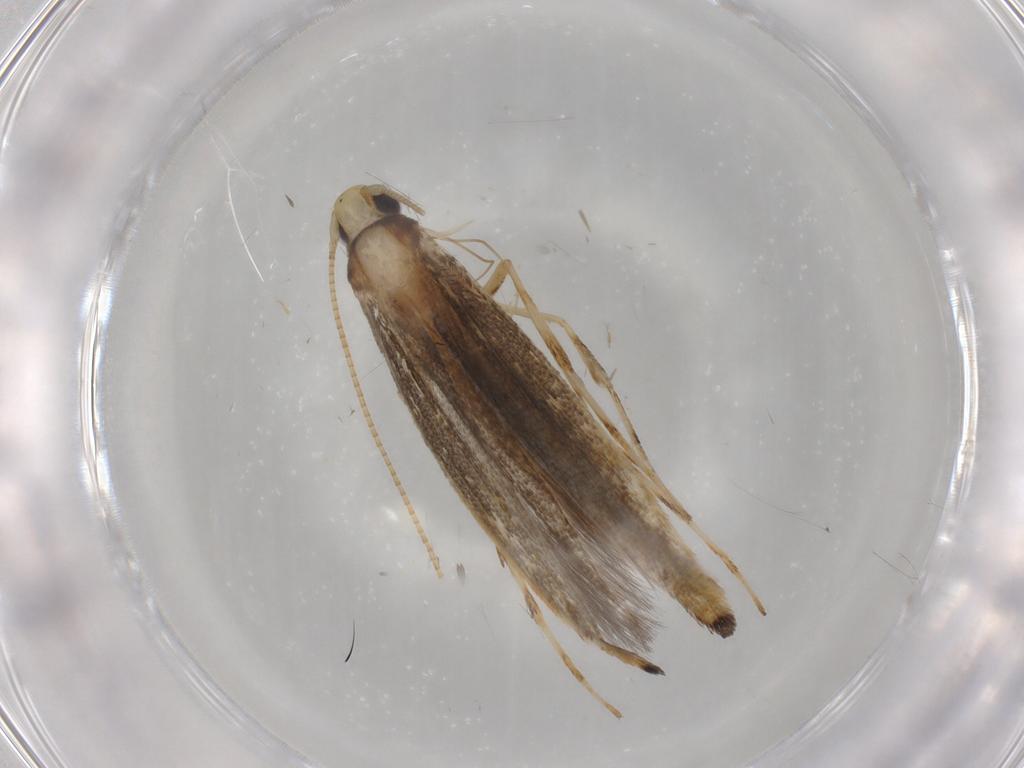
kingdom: Animalia
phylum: Arthropoda
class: Insecta
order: Lepidoptera
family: Gracillariidae
